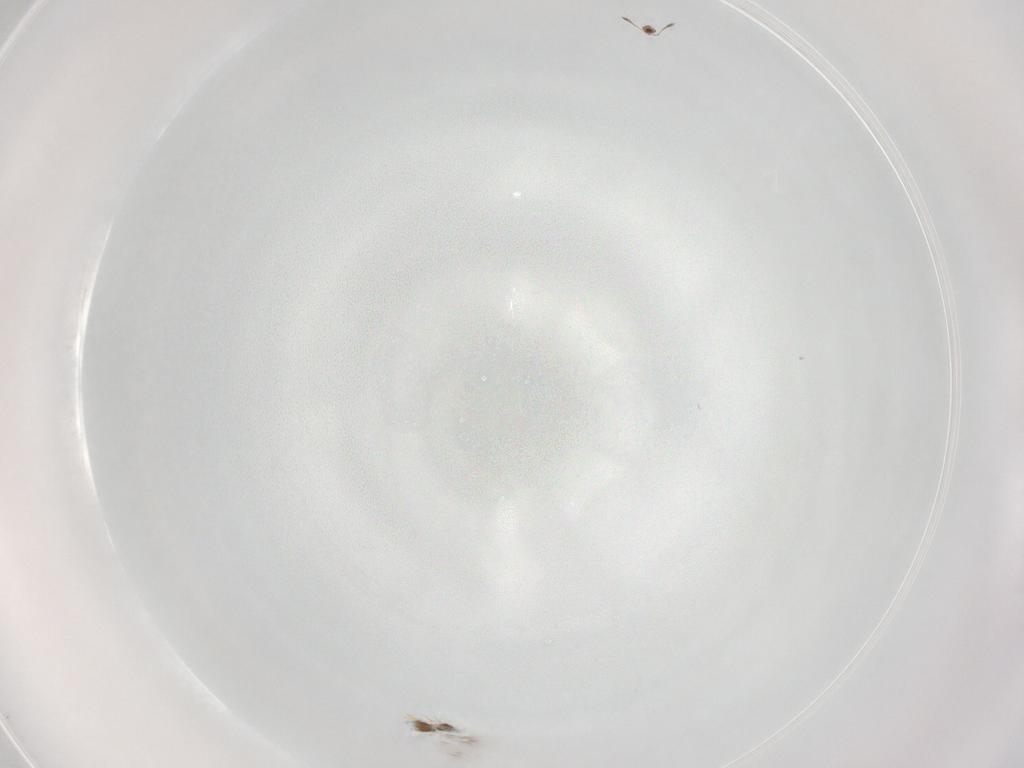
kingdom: Animalia
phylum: Arthropoda
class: Insecta
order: Hymenoptera
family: Mymarommatidae
